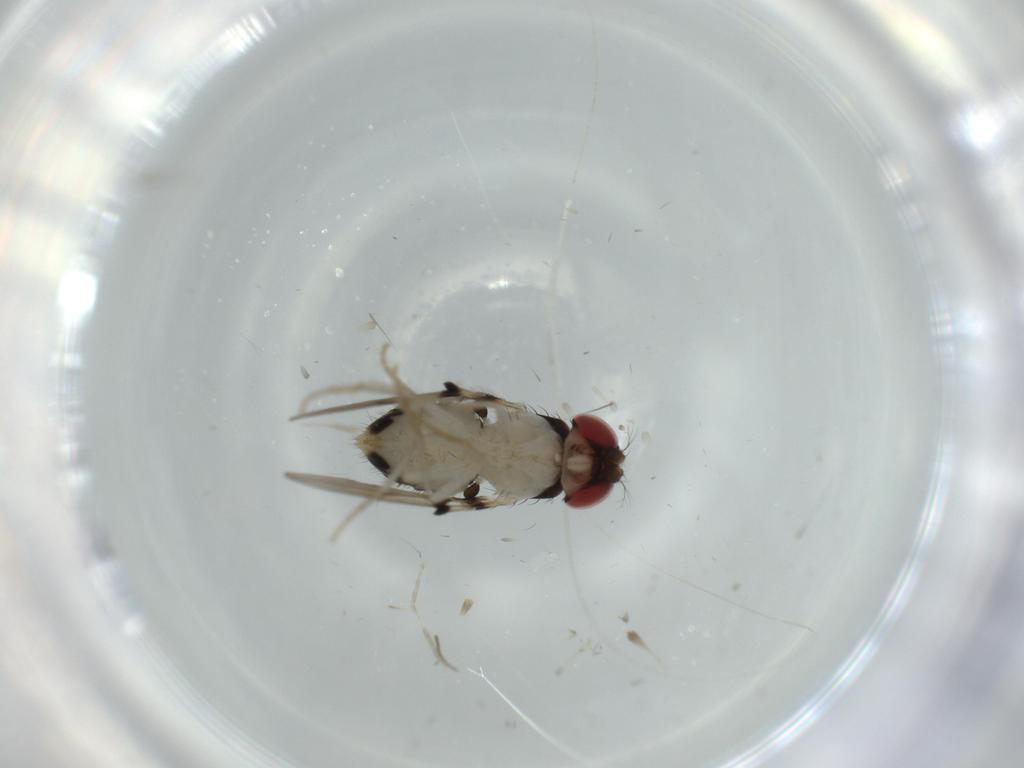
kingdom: Animalia
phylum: Arthropoda
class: Insecta
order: Diptera
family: Drosophilidae
